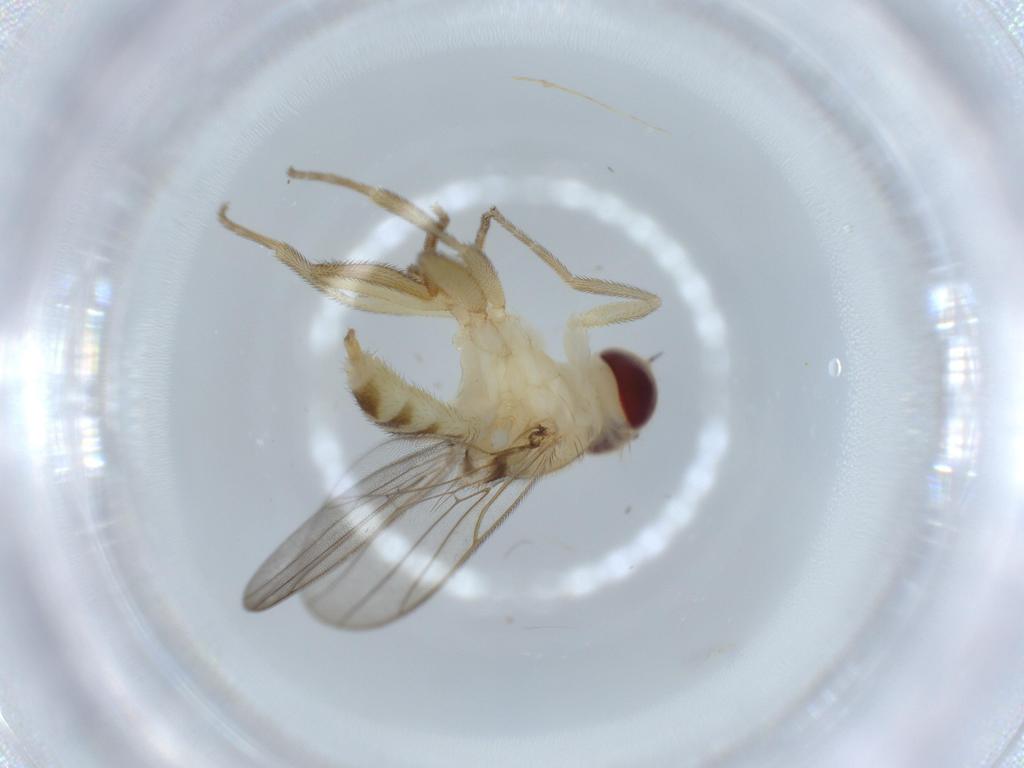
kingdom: Animalia
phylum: Arthropoda
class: Insecta
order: Diptera
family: Chloropidae
